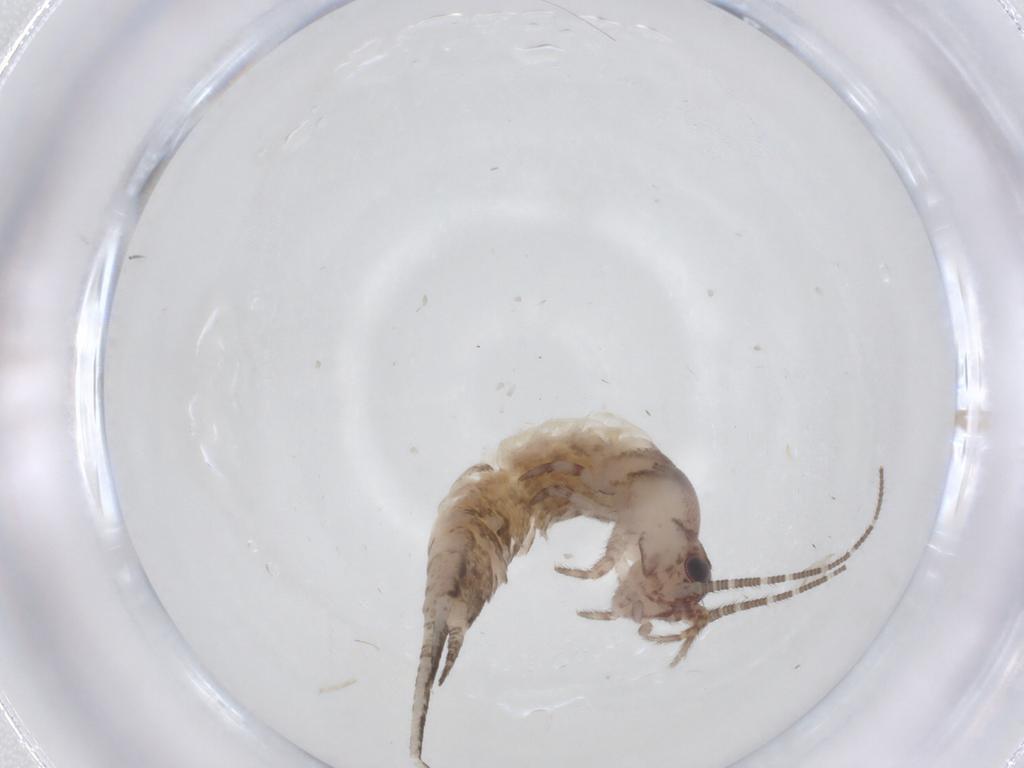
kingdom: Animalia
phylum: Arthropoda
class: Insecta
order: Archaeognatha
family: Meinertellidae
